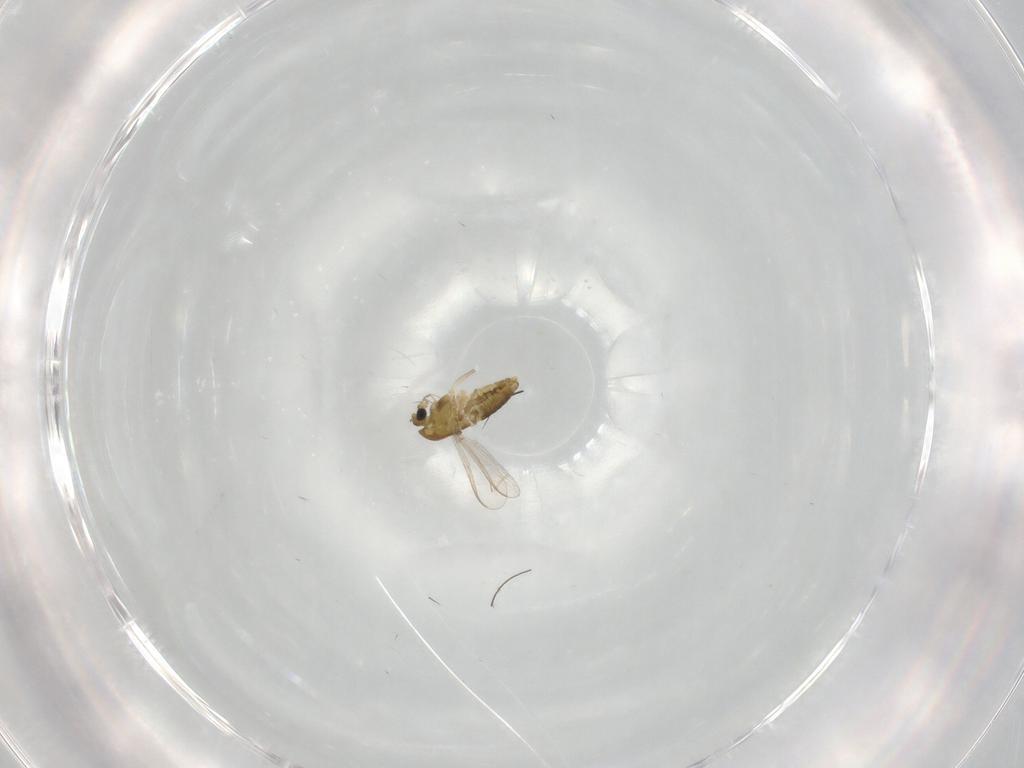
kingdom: Animalia
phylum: Arthropoda
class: Insecta
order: Diptera
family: Chironomidae
